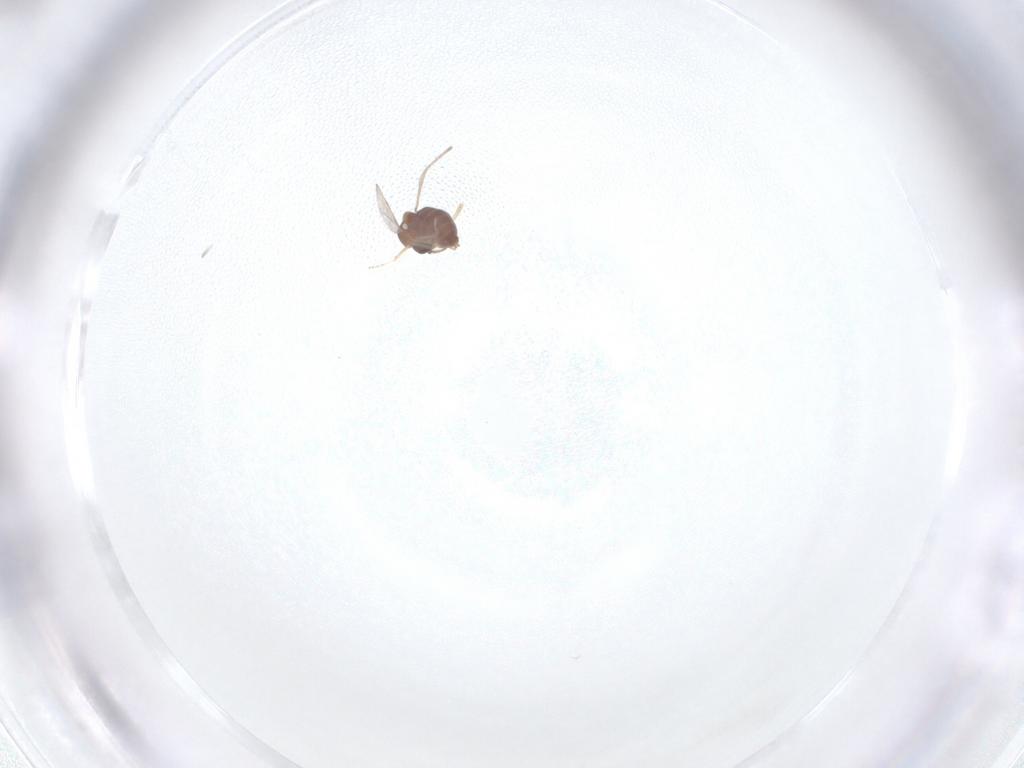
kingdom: Animalia
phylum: Arthropoda
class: Insecta
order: Diptera
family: Ceratopogonidae
